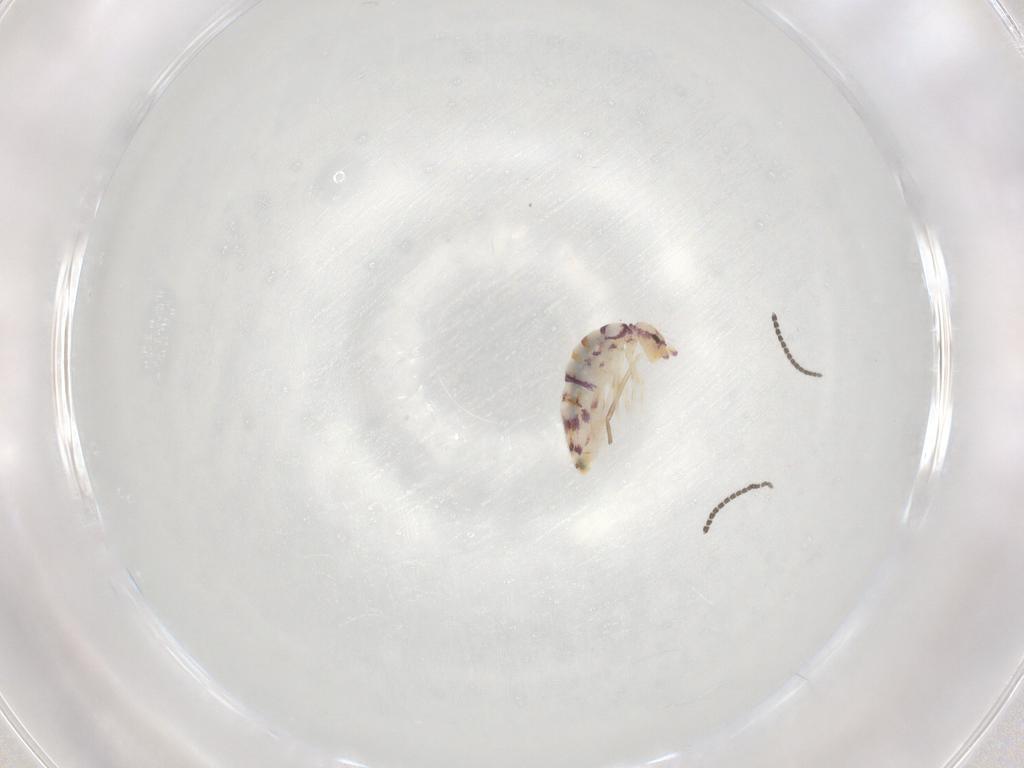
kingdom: Animalia
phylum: Arthropoda
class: Collembola
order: Entomobryomorpha
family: Entomobryidae
